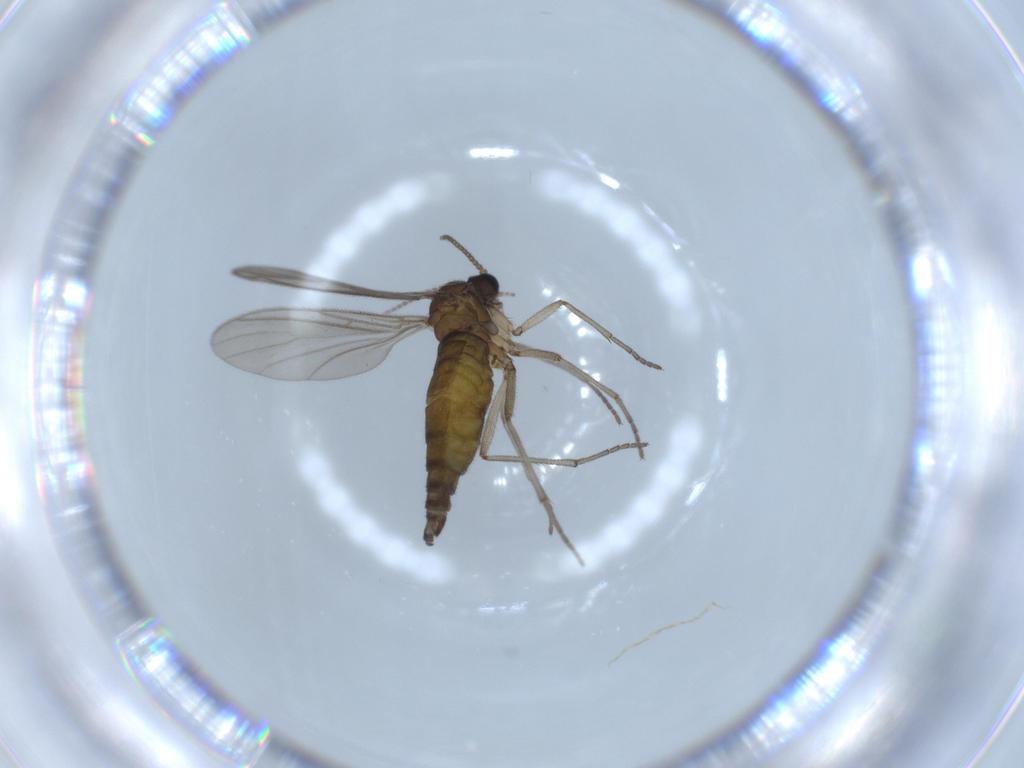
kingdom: Animalia
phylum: Arthropoda
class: Insecta
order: Diptera
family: Sciaridae
